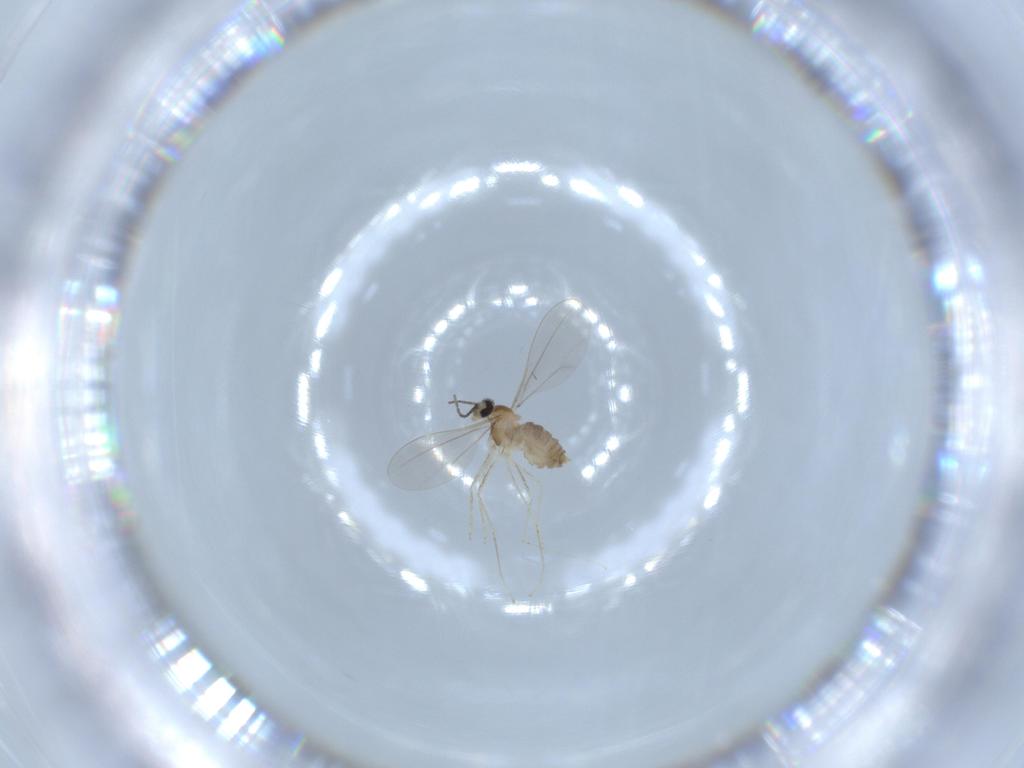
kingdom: Animalia
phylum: Arthropoda
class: Insecta
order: Diptera
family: Cecidomyiidae
